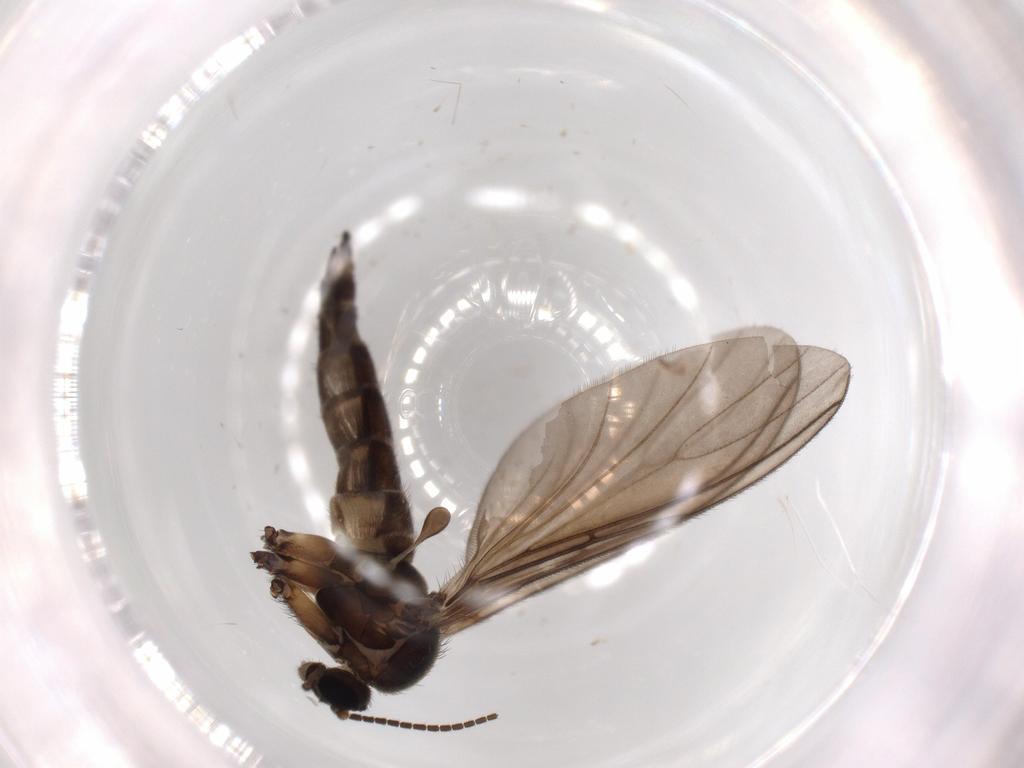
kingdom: Animalia
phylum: Arthropoda
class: Insecta
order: Diptera
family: Sciaridae
